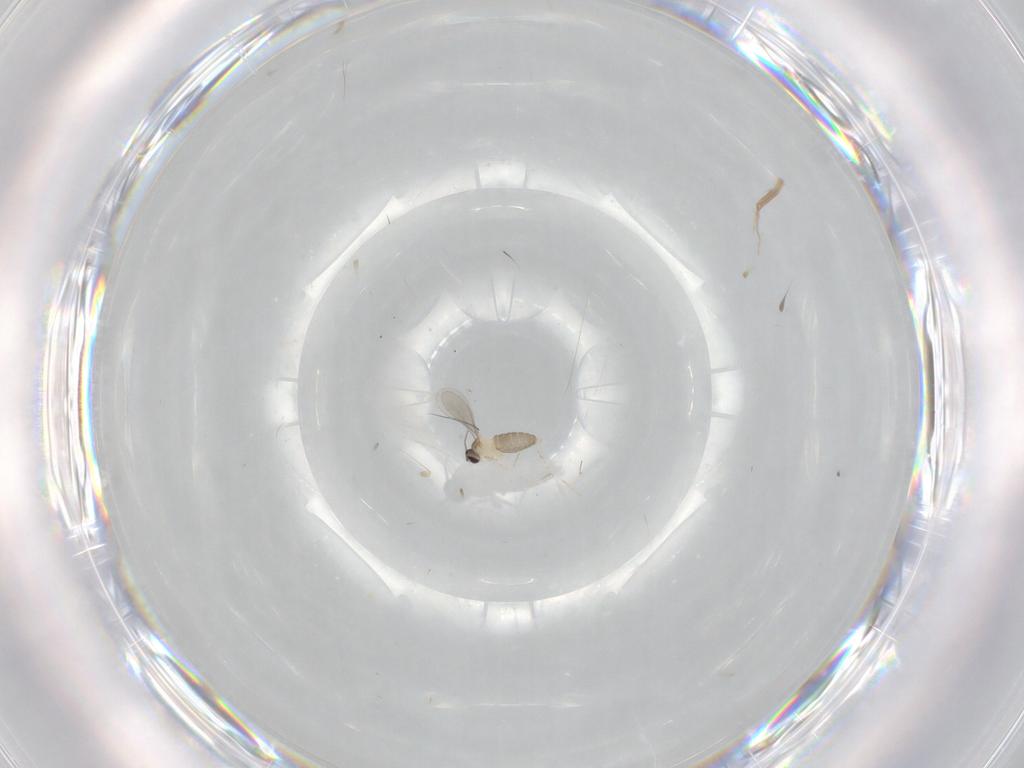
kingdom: Animalia
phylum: Arthropoda
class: Insecta
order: Diptera
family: Cecidomyiidae
